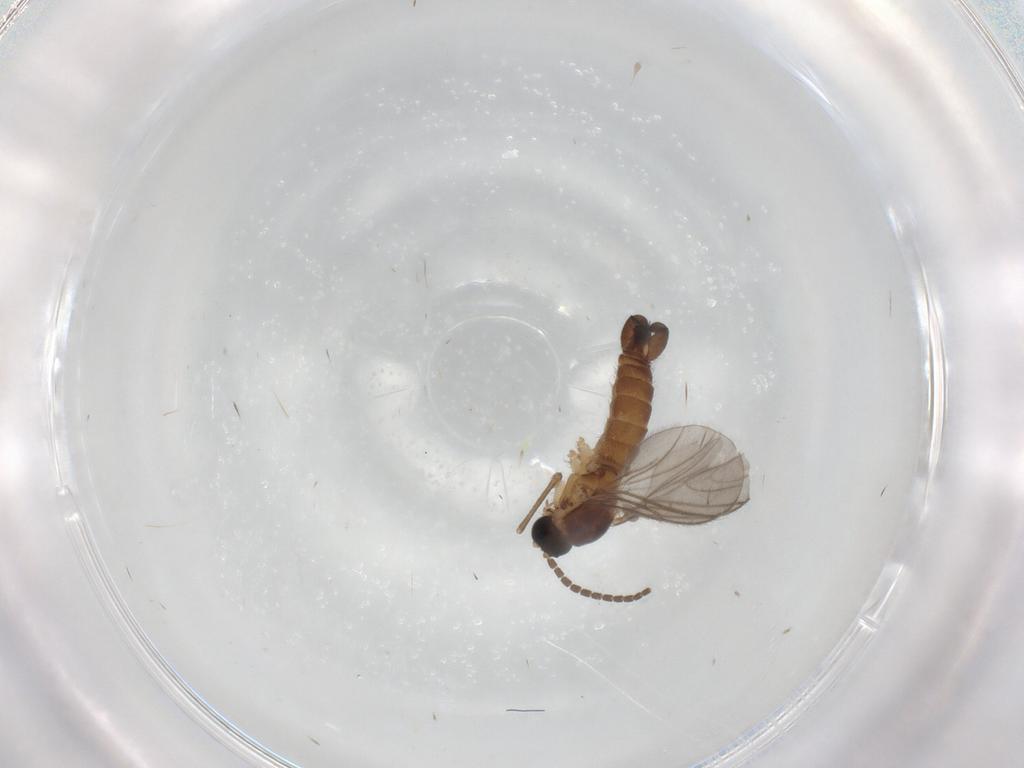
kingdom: Animalia
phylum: Arthropoda
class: Insecta
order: Diptera
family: Sciaridae
